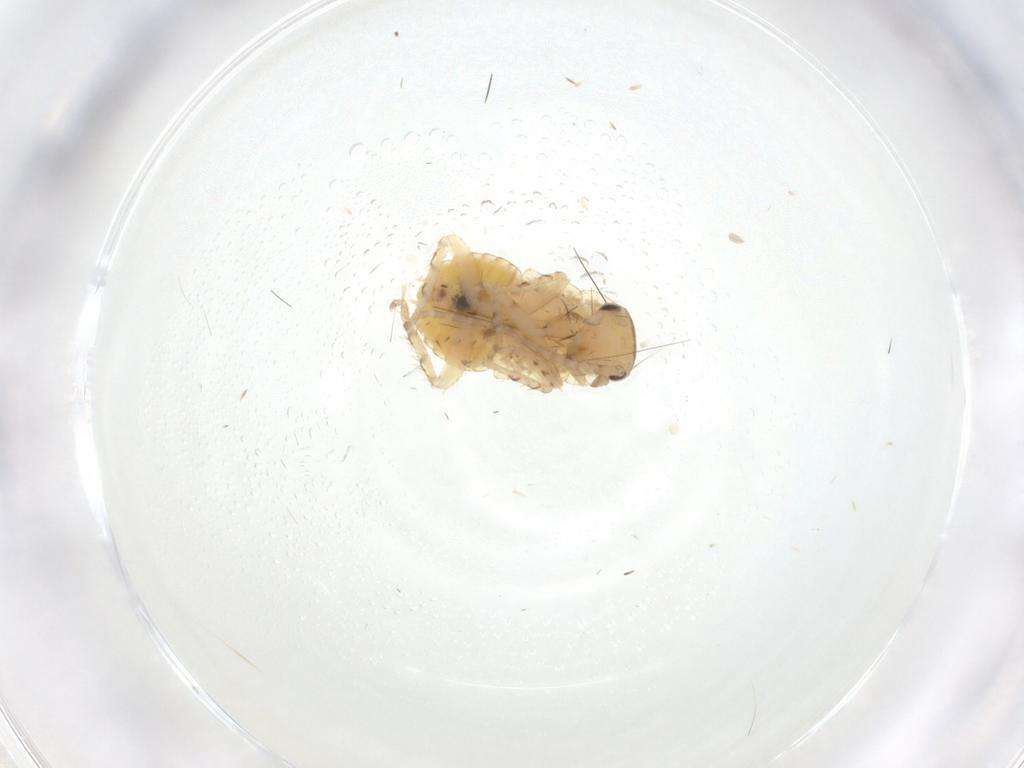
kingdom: Animalia
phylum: Arthropoda
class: Insecta
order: Blattodea
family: Ectobiidae
